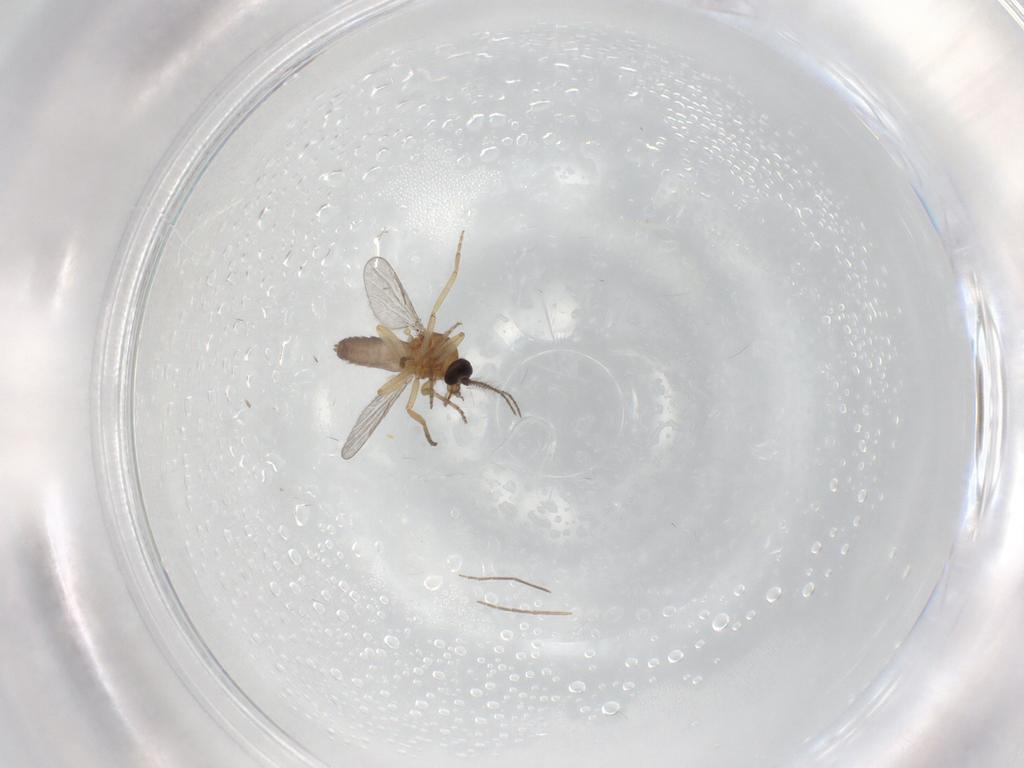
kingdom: Animalia
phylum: Arthropoda
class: Insecta
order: Diptera
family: Chironomidae
